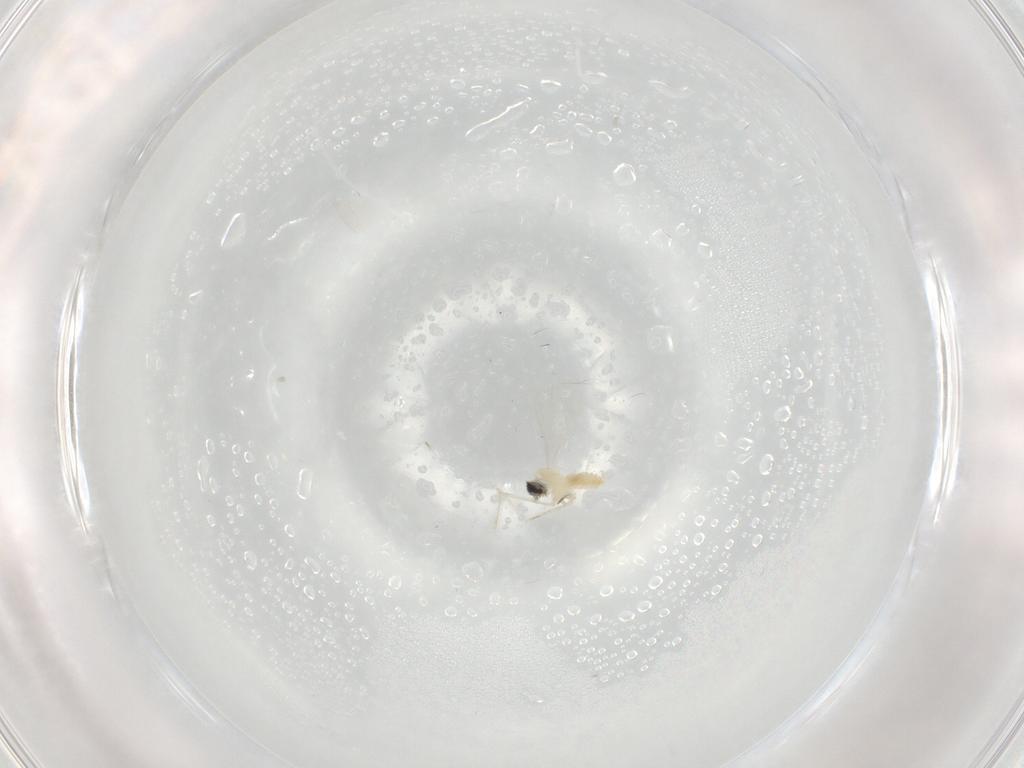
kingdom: Animalia
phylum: Arthropoda
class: Insecta
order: Diptera
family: Cecidomyiidae
